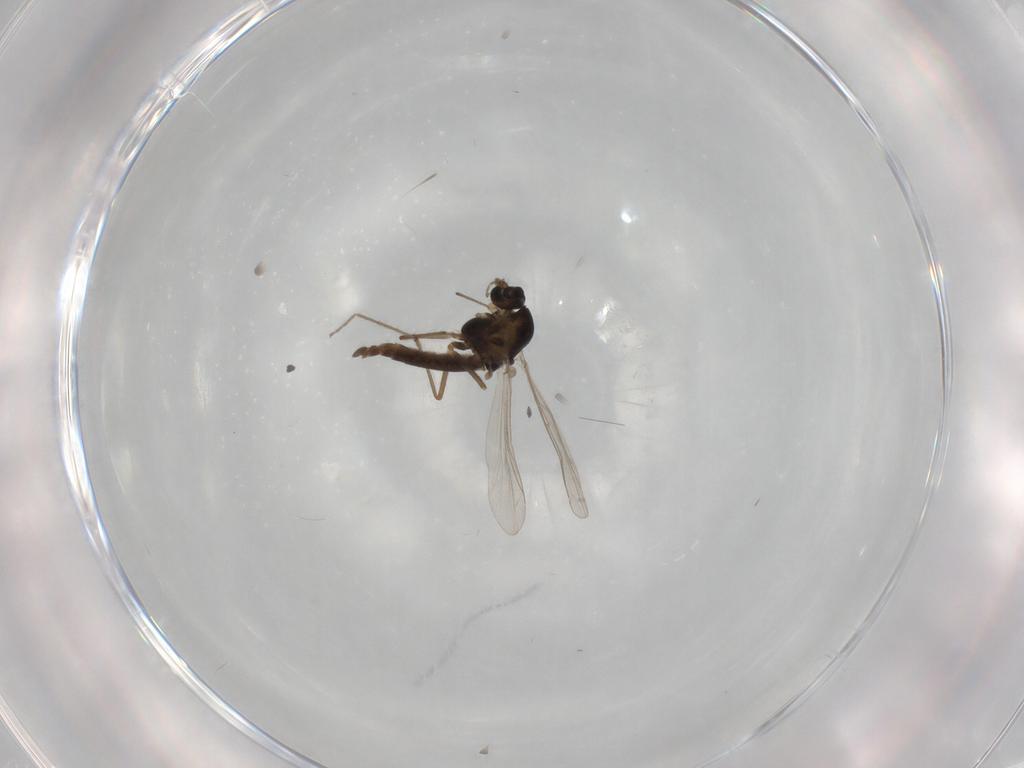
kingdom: Animalia
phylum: Arthropoda
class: Insecta
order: Diptera
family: Chironomidae
